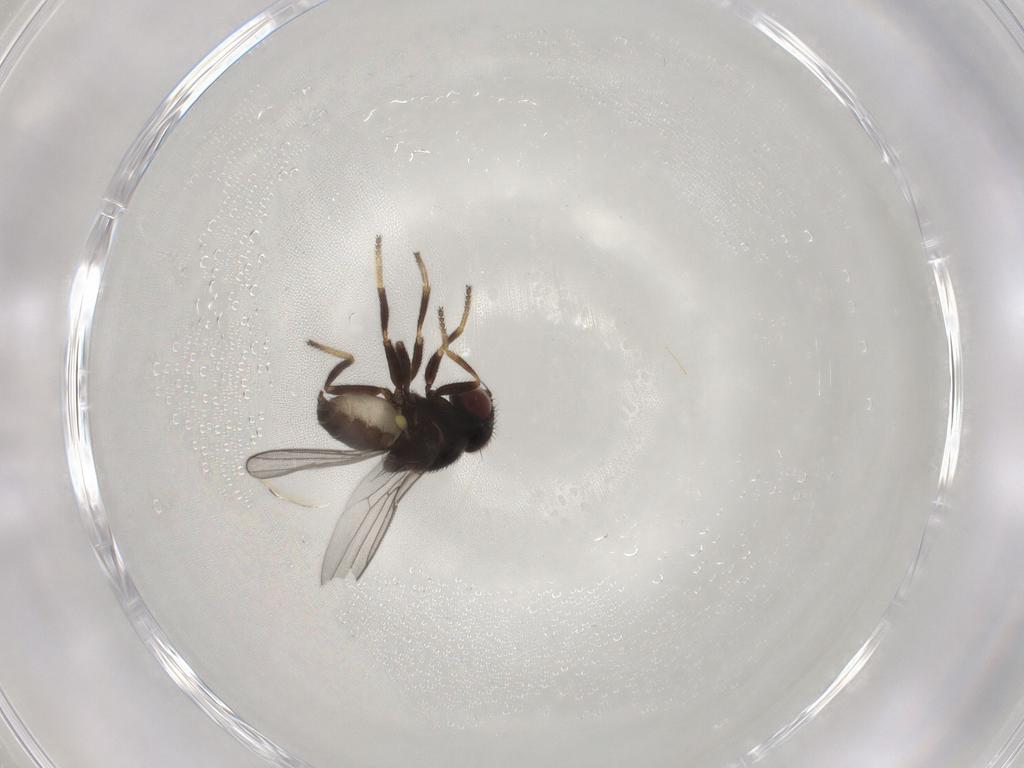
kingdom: Animalia
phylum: Arthropoda
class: Insecta
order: Diptera
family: Chloropidae
